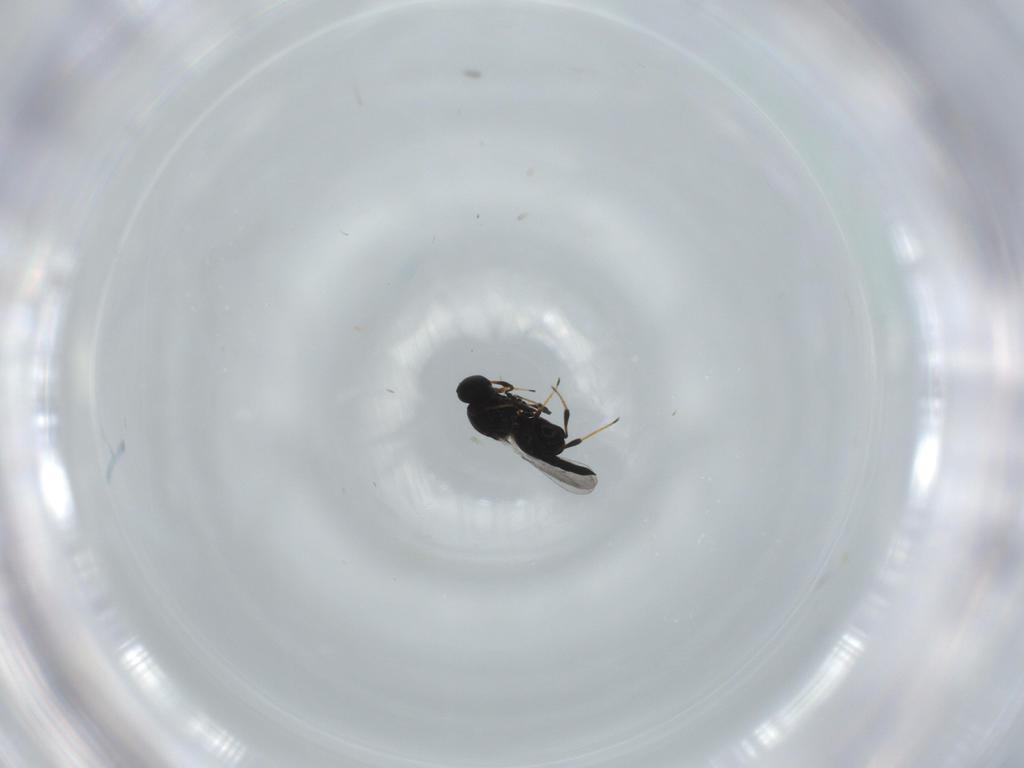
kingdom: Animalia
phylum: Arthropoda
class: Insecta
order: Hymenoptera
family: Platygastridae
